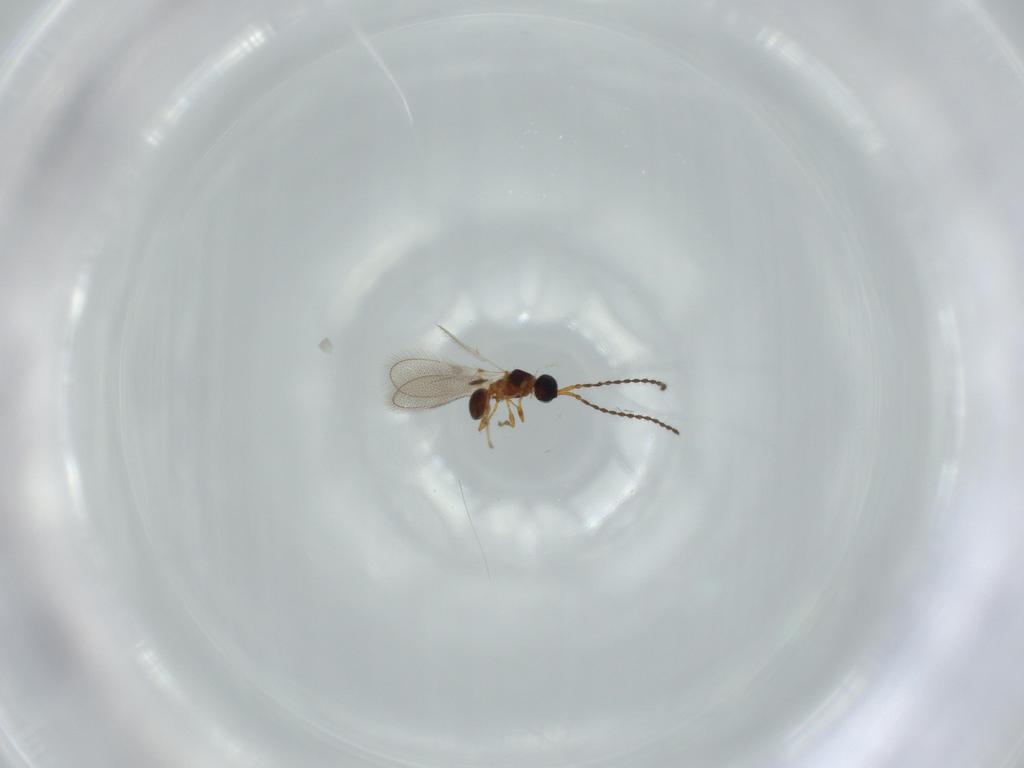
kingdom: Animalia
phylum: Arthropoda
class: Insecta
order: Hymenoptera
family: Diapriidae
